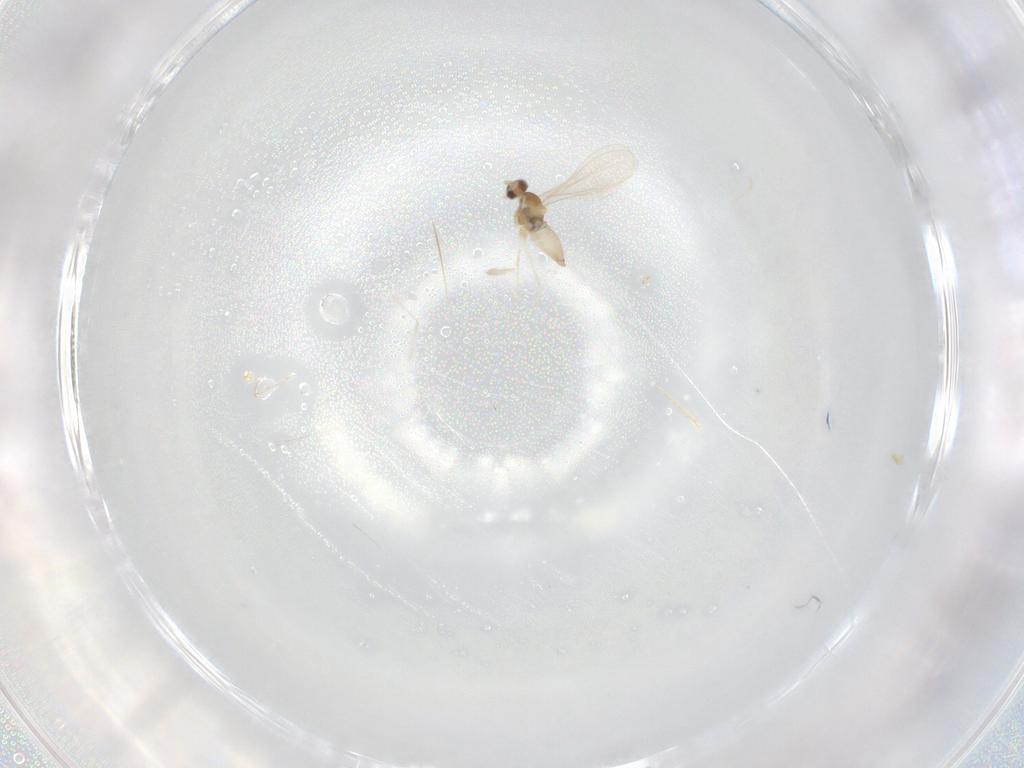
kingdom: Animalia
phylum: Arthropoda
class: Insecta
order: Diptera
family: Cecidomyiidae
